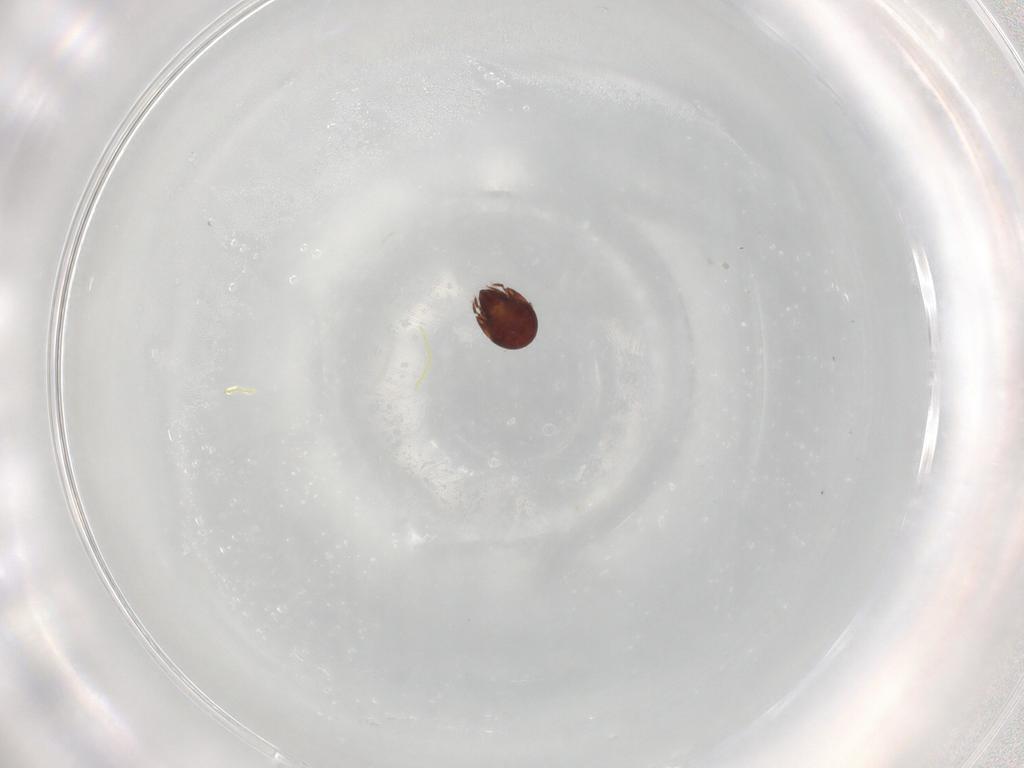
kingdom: Animalia
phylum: Arthropoda
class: Arachnida
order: Sarcoptiformes
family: Humerobatidae
